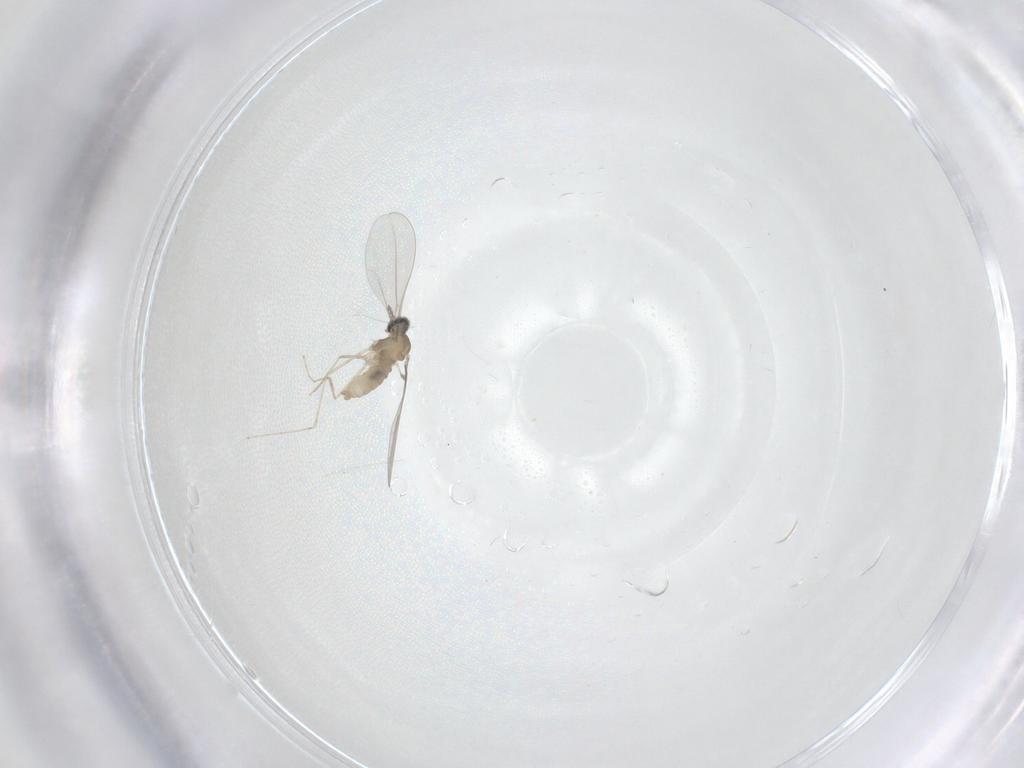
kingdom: Animalia
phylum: Arthropoda
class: Insecta
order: Diptera
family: Cecidomyiidae
